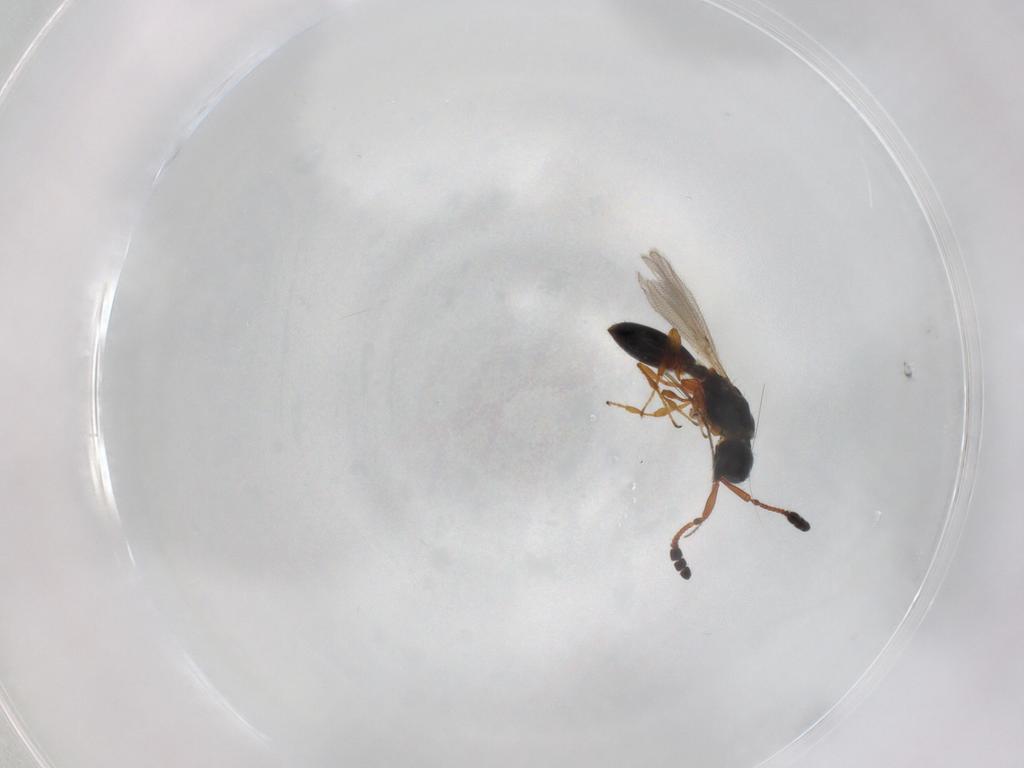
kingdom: Animalia
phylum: Arthropoda
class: Insecta
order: Hymenoptera
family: Diapriidae
